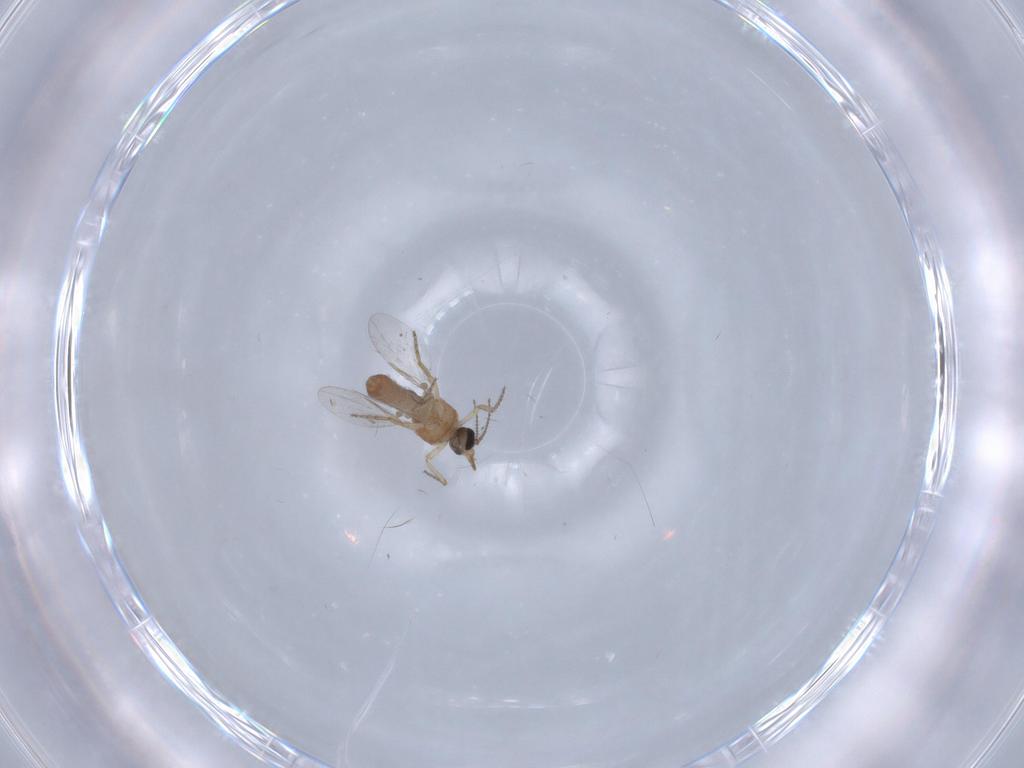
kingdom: Animalia
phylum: Arthropoda
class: Insecta
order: Diptera
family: Ceratopogonidae
